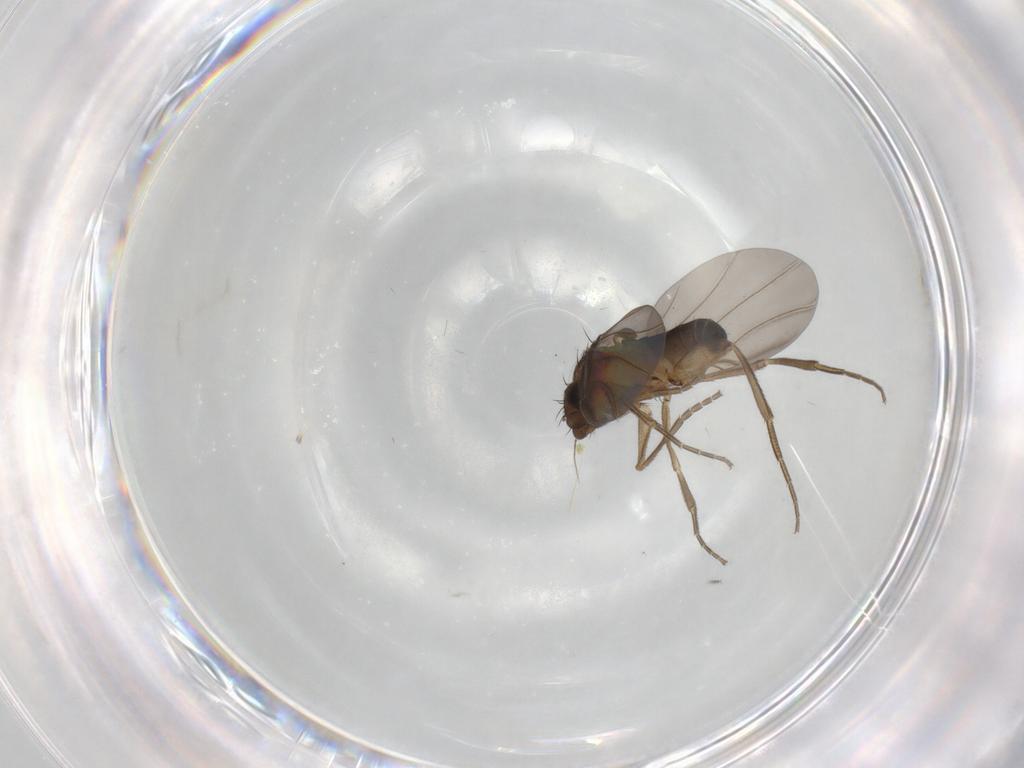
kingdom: Animalia
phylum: Arthropoda
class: Insecta
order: Diptera
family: Phoridae
